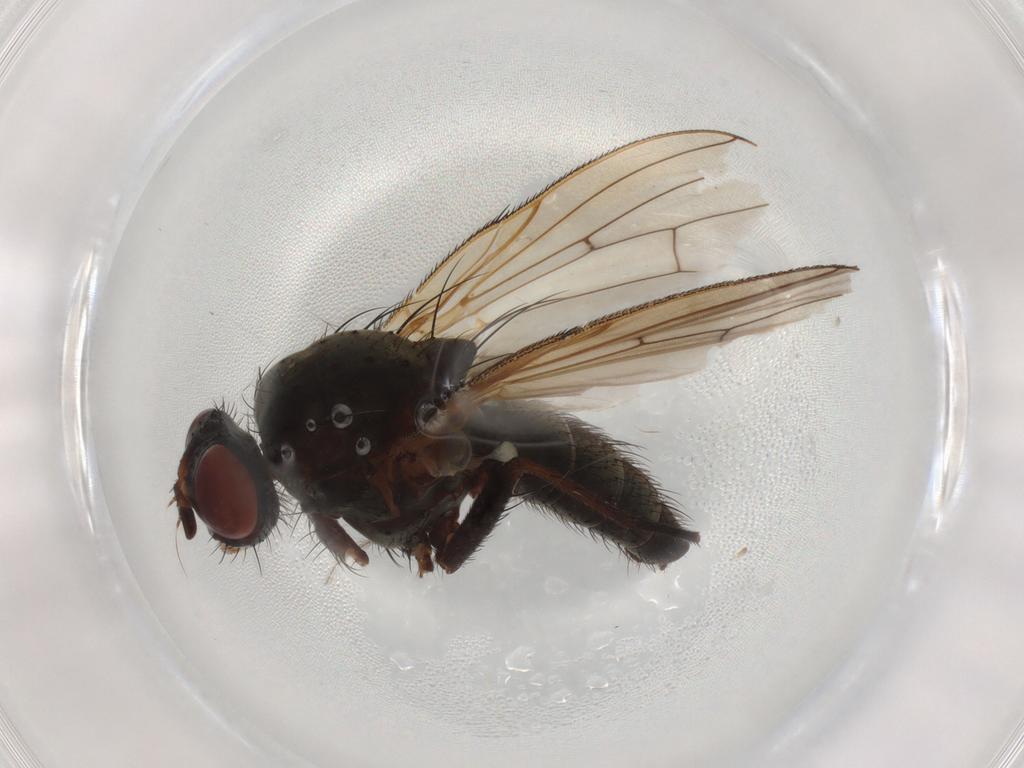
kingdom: Animalia
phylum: Arthropoda
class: Insecta
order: Diptera
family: Anthomyiidae
